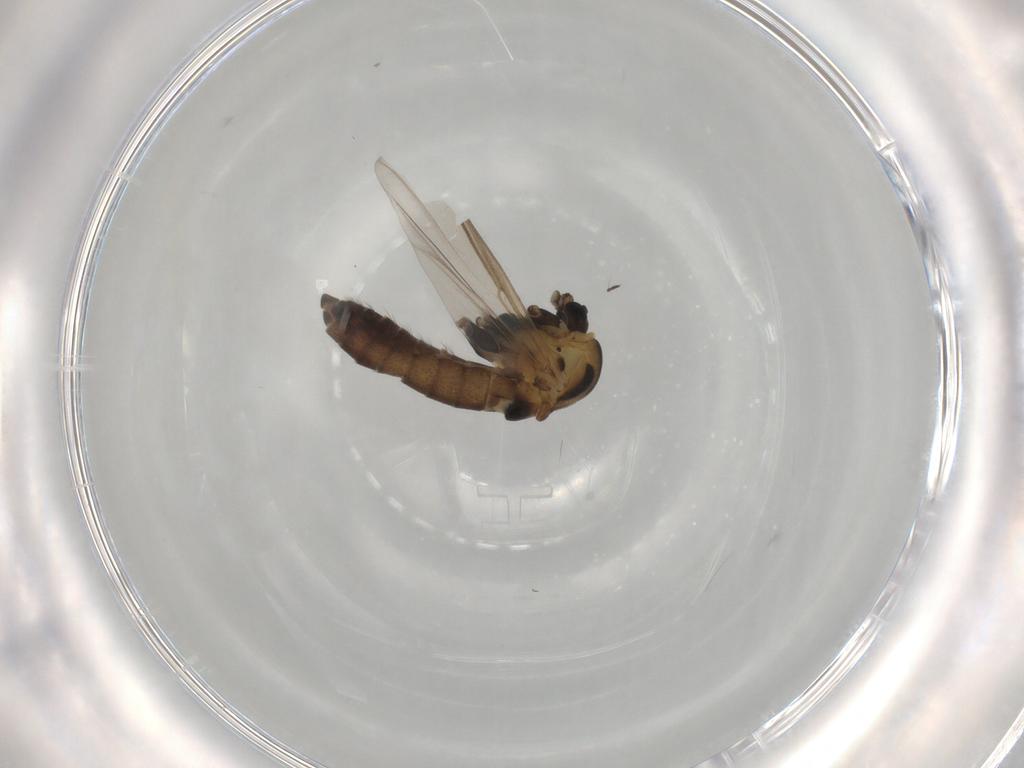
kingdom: Animalia
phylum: Arthropoda
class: Insecta
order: Diptera
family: Chironomidae
